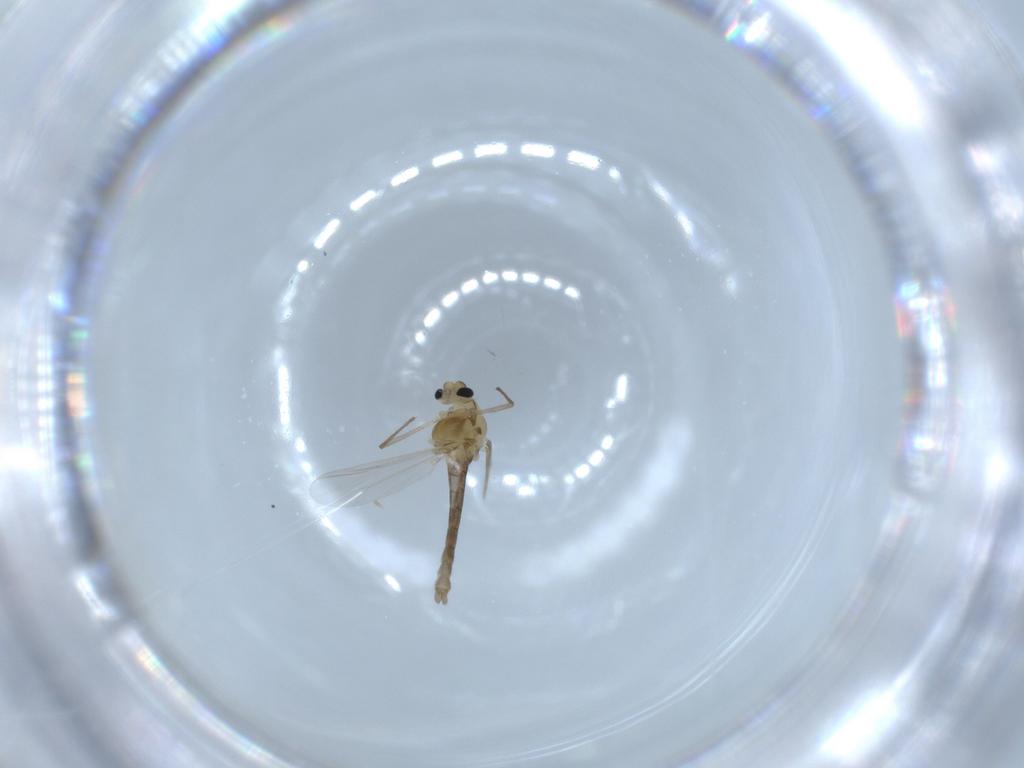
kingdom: Animalia
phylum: Arthropoda
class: Insecta
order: Diptera
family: Chironomidae
